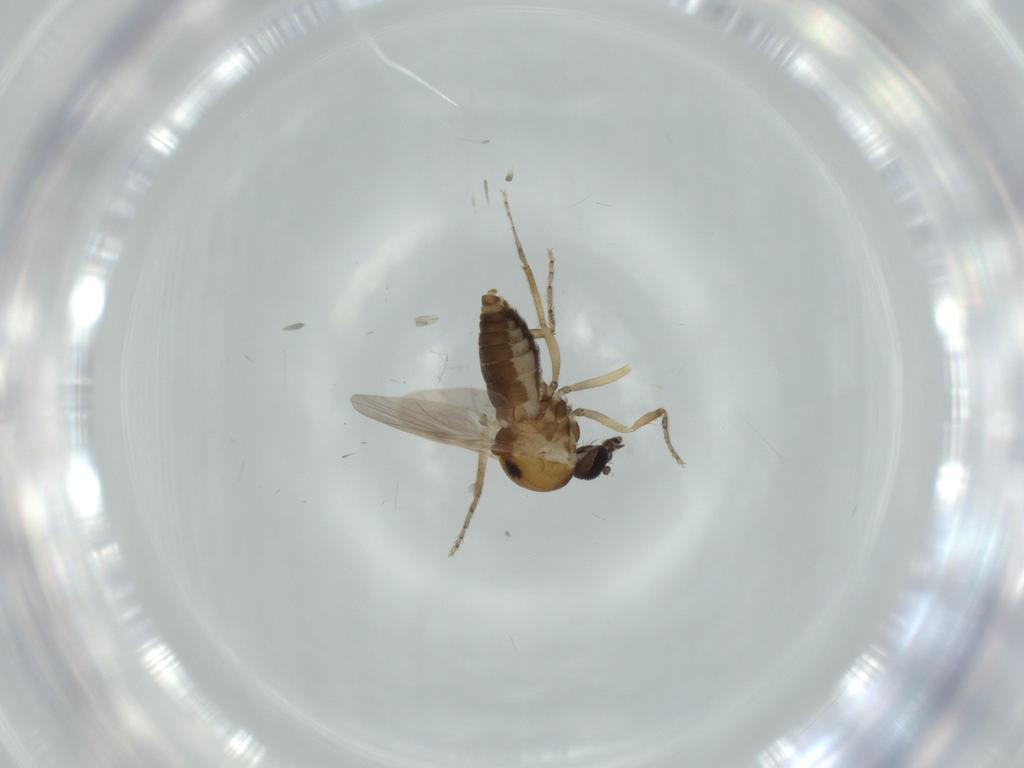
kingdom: Animalia
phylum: Arthropoda
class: Insecta
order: Diptera
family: Ceratopogonidae
